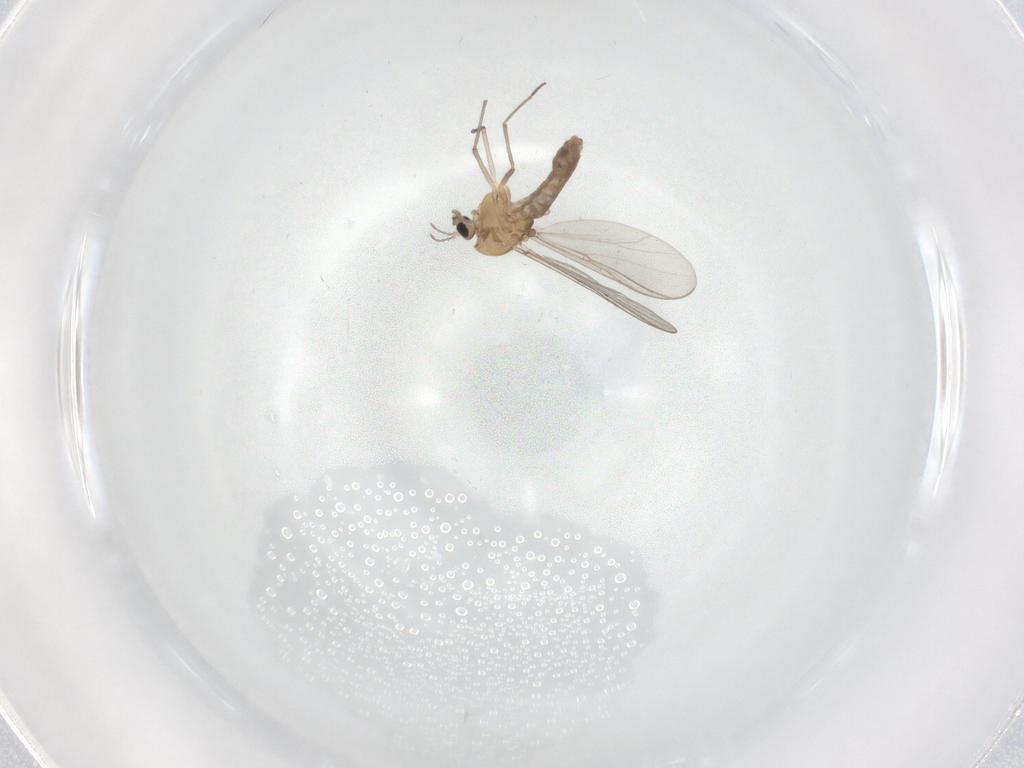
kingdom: Animalia
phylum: Arthropoda
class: Insecta
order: Diptera
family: Chironomidae
